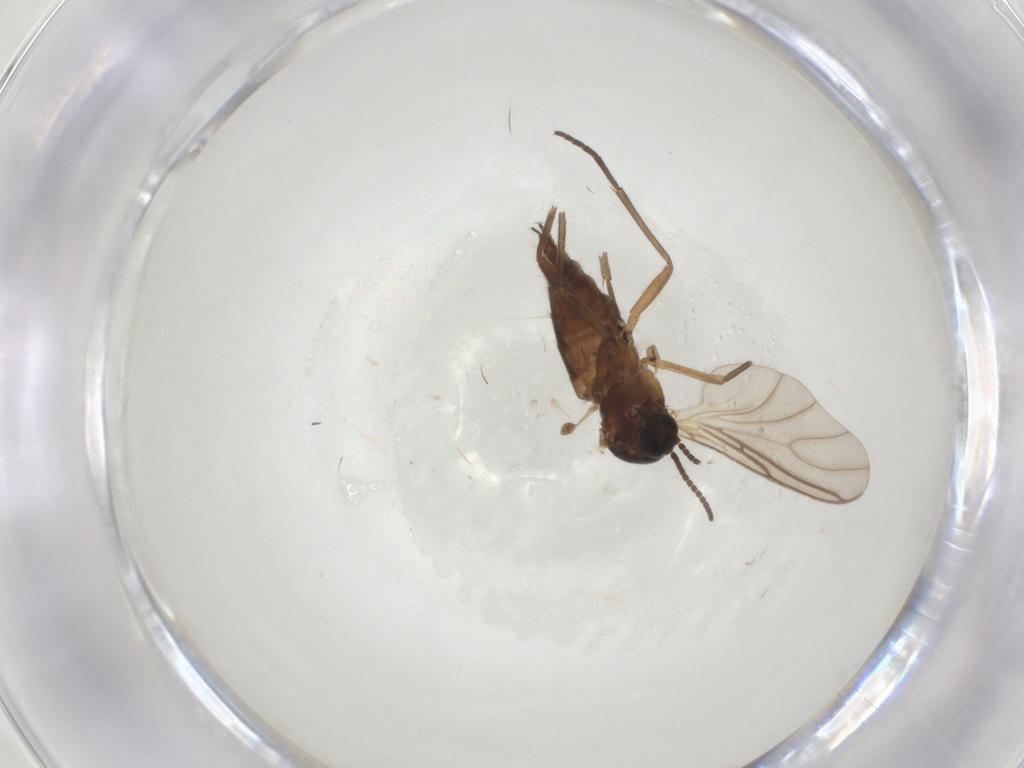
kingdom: Animalia
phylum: Arthropoda
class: Insecta
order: Diptera
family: Sciaridae
